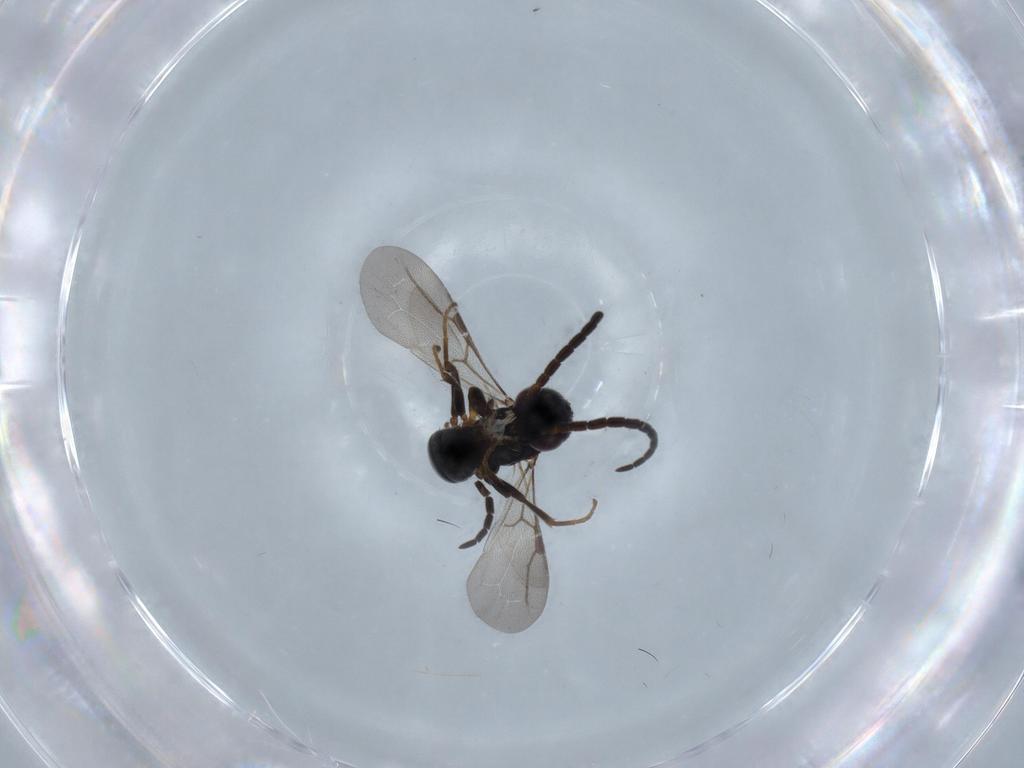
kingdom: Animalia
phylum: Arthropoda
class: Insecta
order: Hymenoptera
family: Bethylidae
